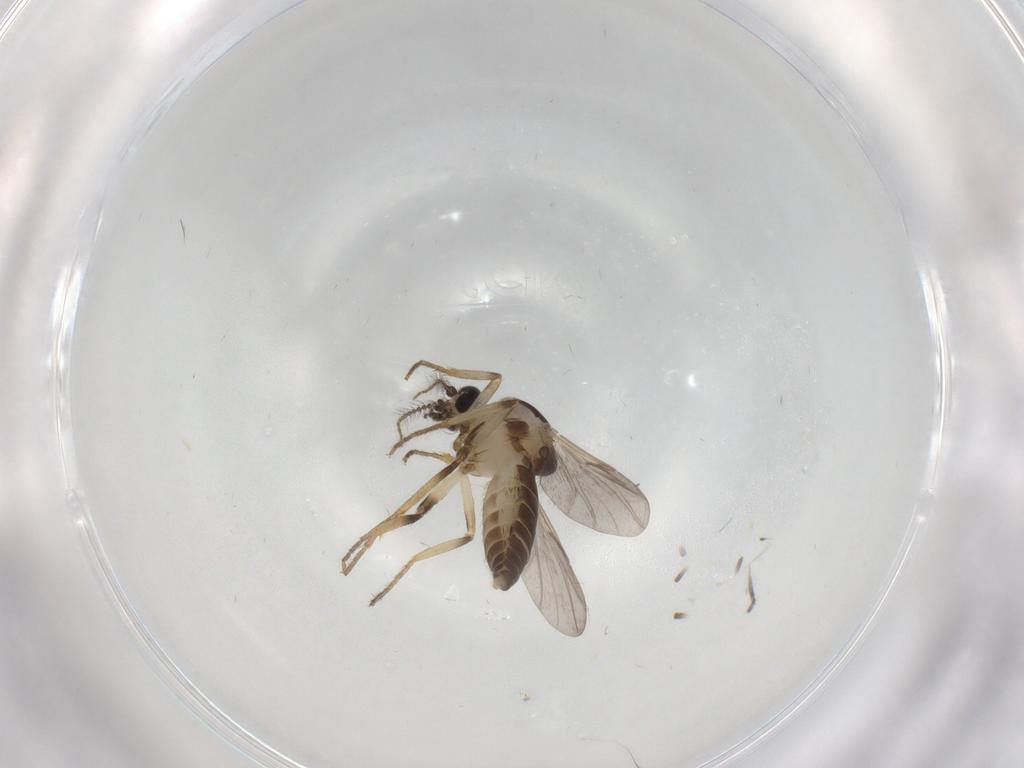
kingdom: Animalia
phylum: Arthropoda
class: Insecta
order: Diptera
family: Ceratopogonidae
